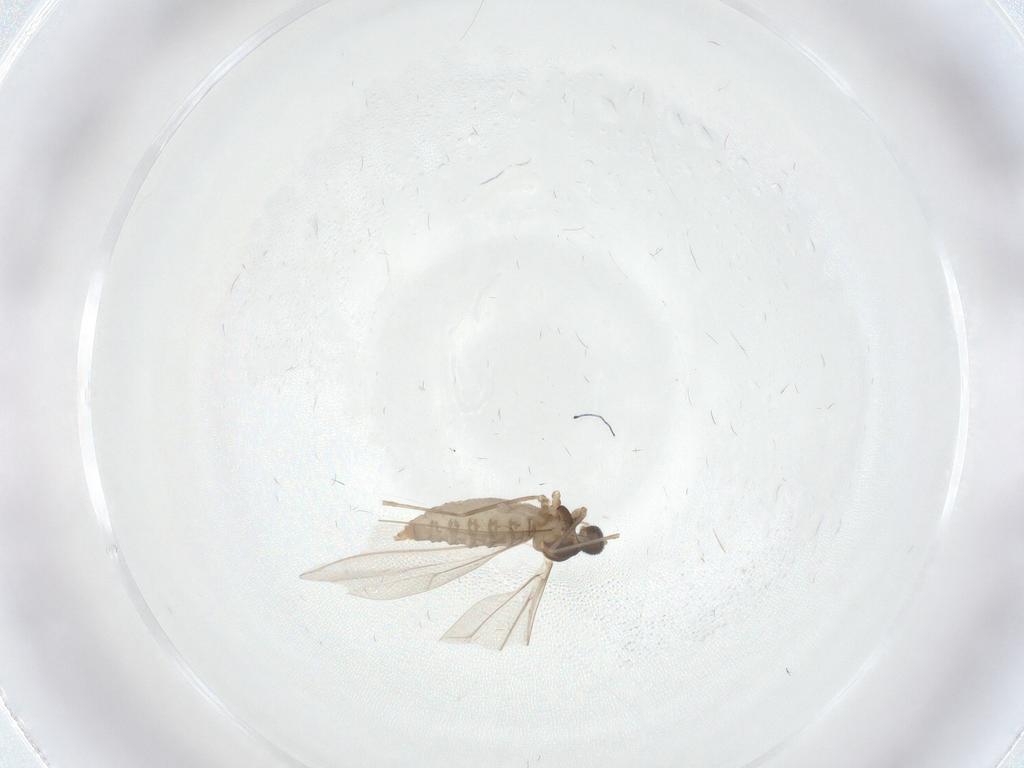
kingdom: Animalia
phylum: Arthropoda
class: Insecta
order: Diptera
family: Cecidomyiidae
